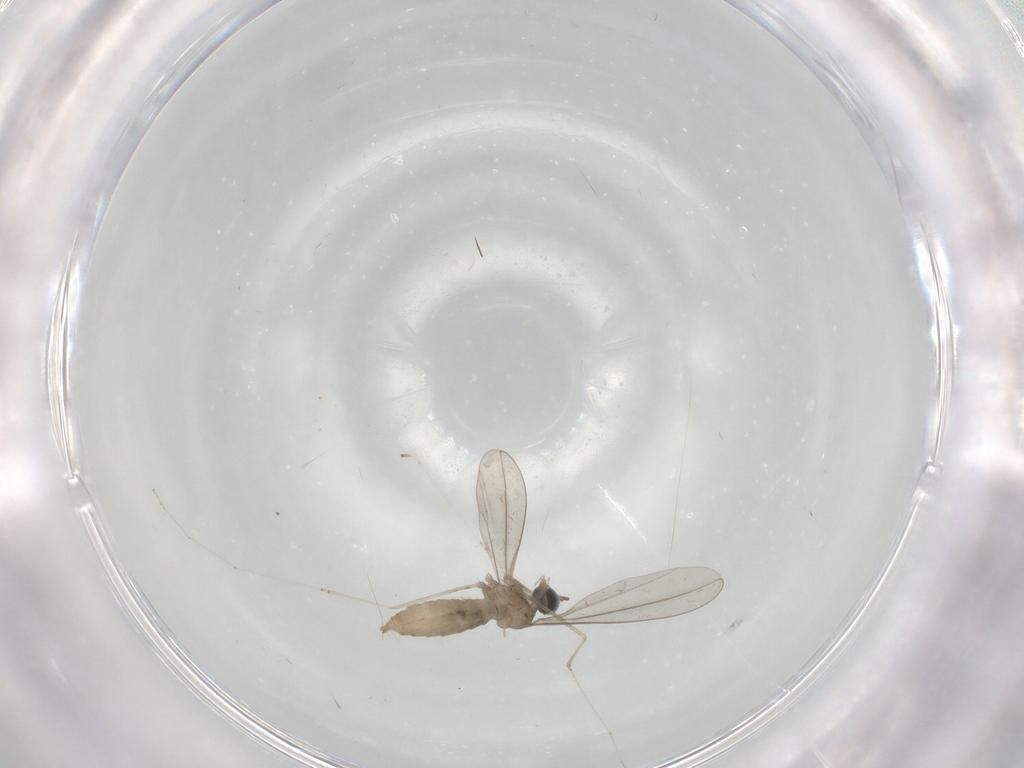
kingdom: Animalia
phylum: Arthropoda
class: Insecta
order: Diptera
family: Cecidomyiidae
